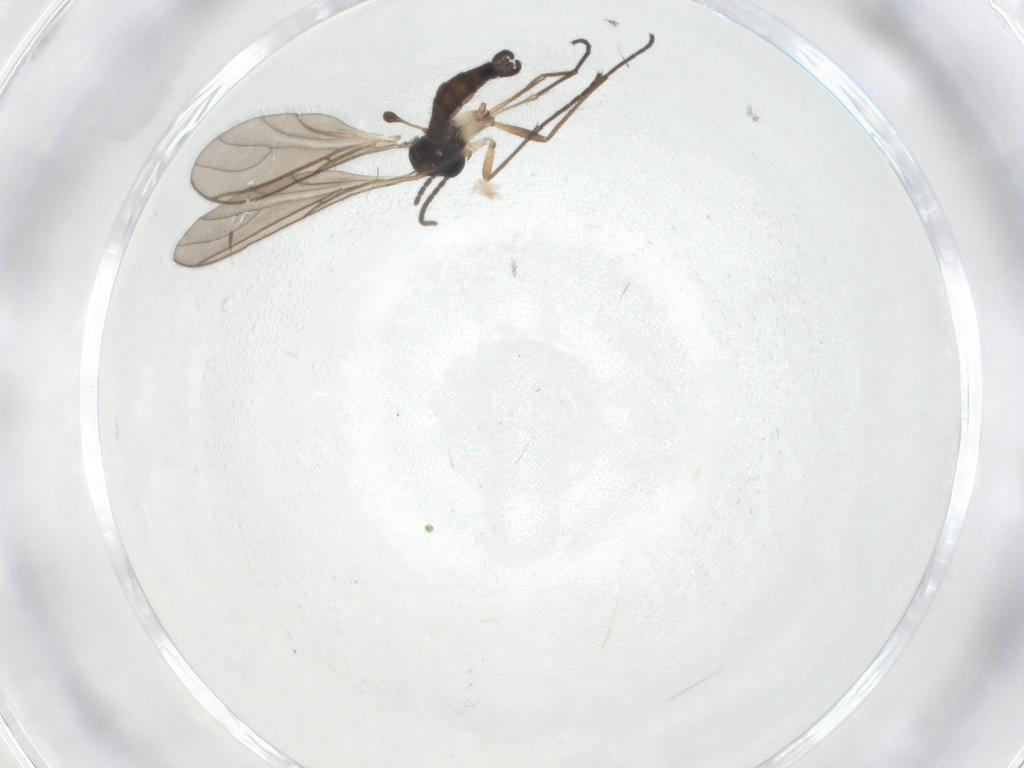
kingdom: Animalia
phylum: Arthropoda
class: Insecta
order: Diptera
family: Sciaridae
